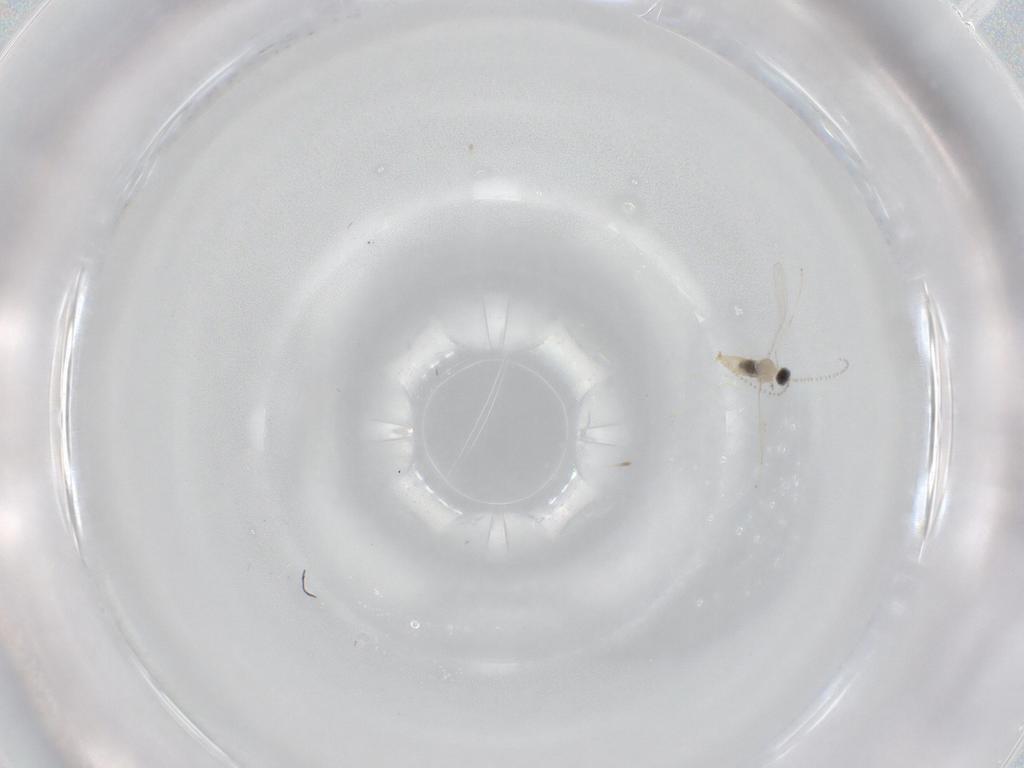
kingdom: Animalia
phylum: Arthropoda
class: Insecta
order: Diptera
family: Cecidomyiidae
